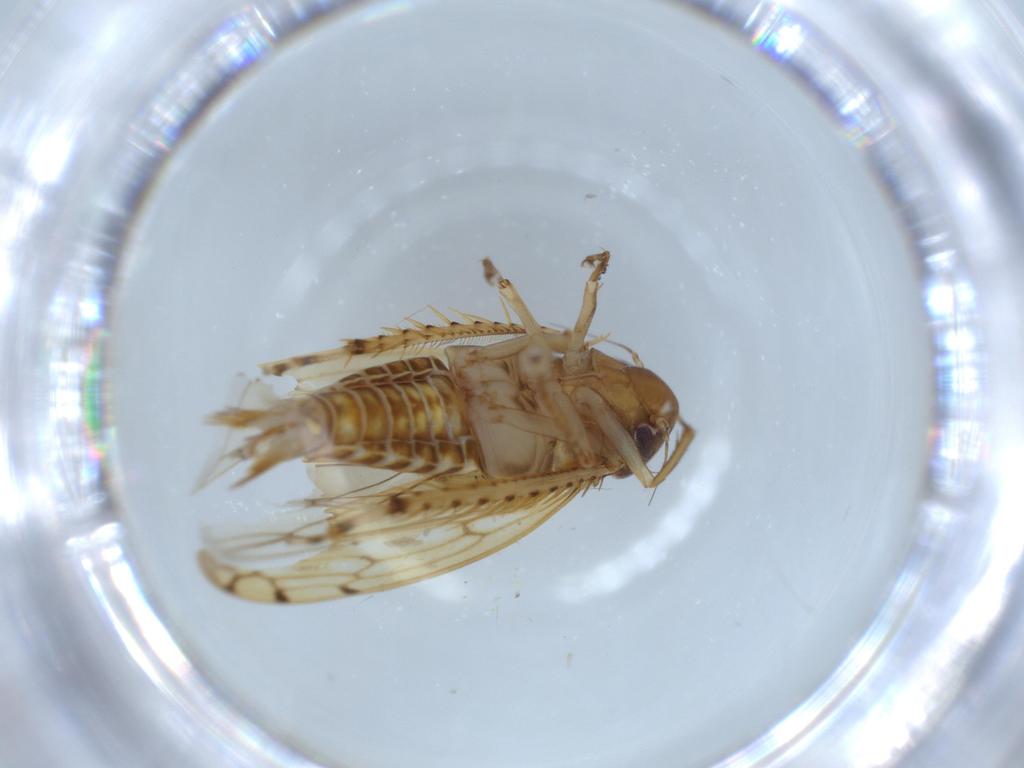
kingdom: Animalia
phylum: Arthropoda
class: Insecta
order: Hemiptera
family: Cicadellidae
